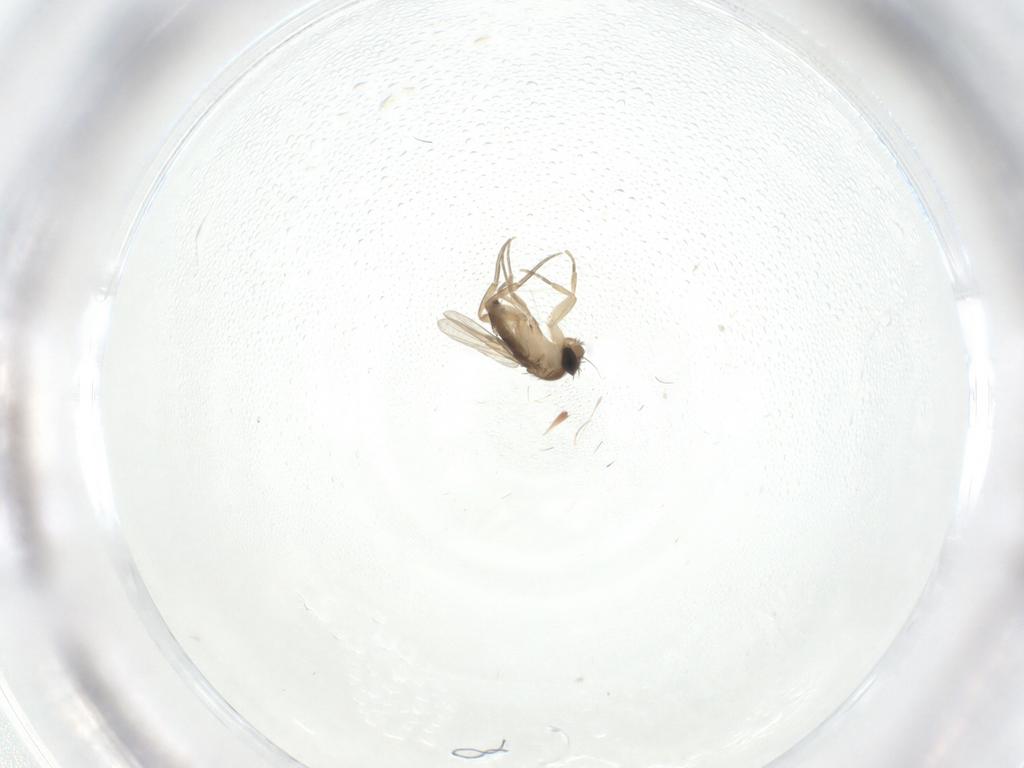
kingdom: Animalia
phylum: Arthropoda
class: Insecta
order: Diptera
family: Phoridae
